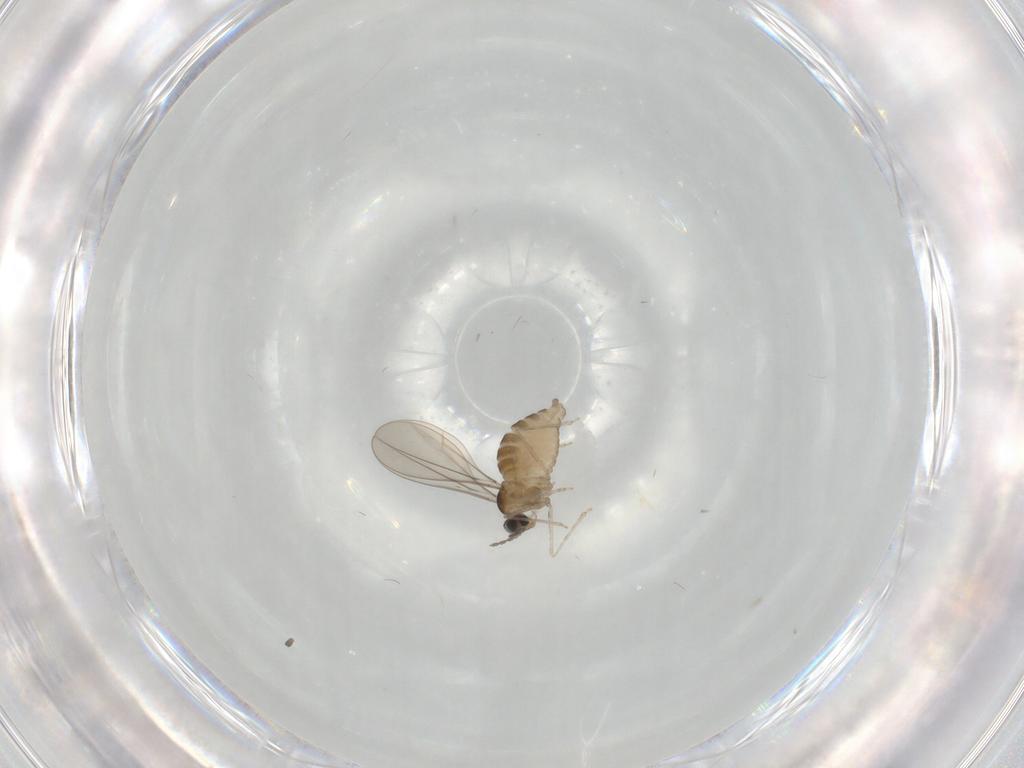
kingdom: Animalia
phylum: Arthropoda
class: Insecta
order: Diptera
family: Cecidomyiidae
